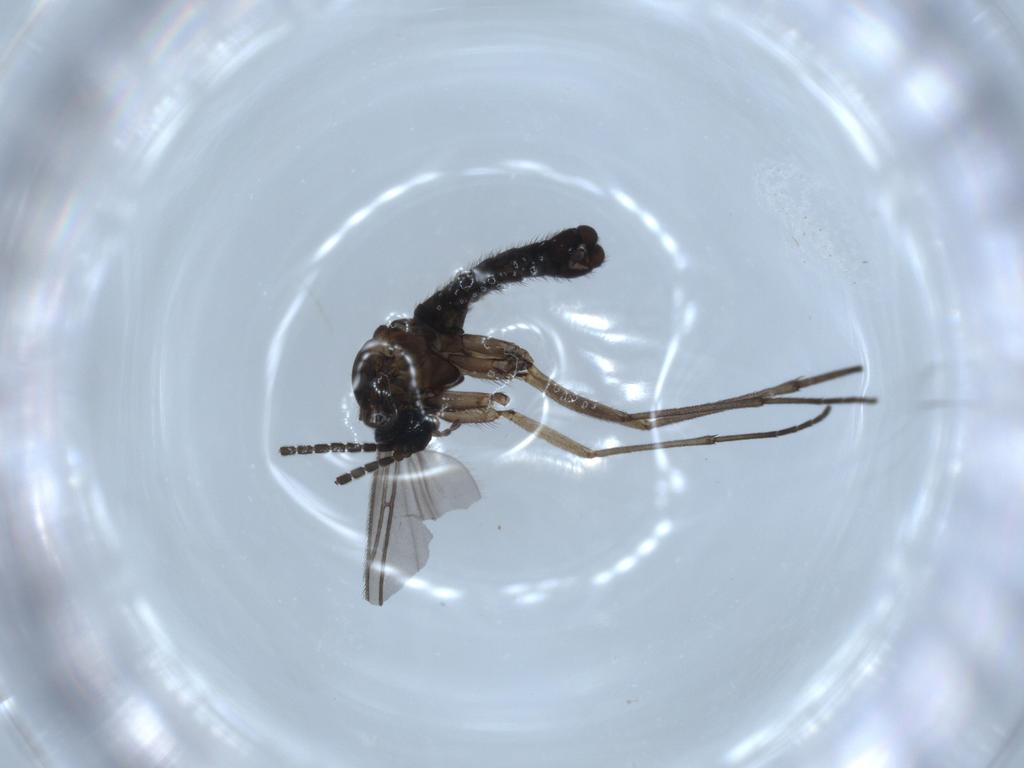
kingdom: Animalia
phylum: Arthropoda
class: Insecta
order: Diptera
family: Sciaridae
